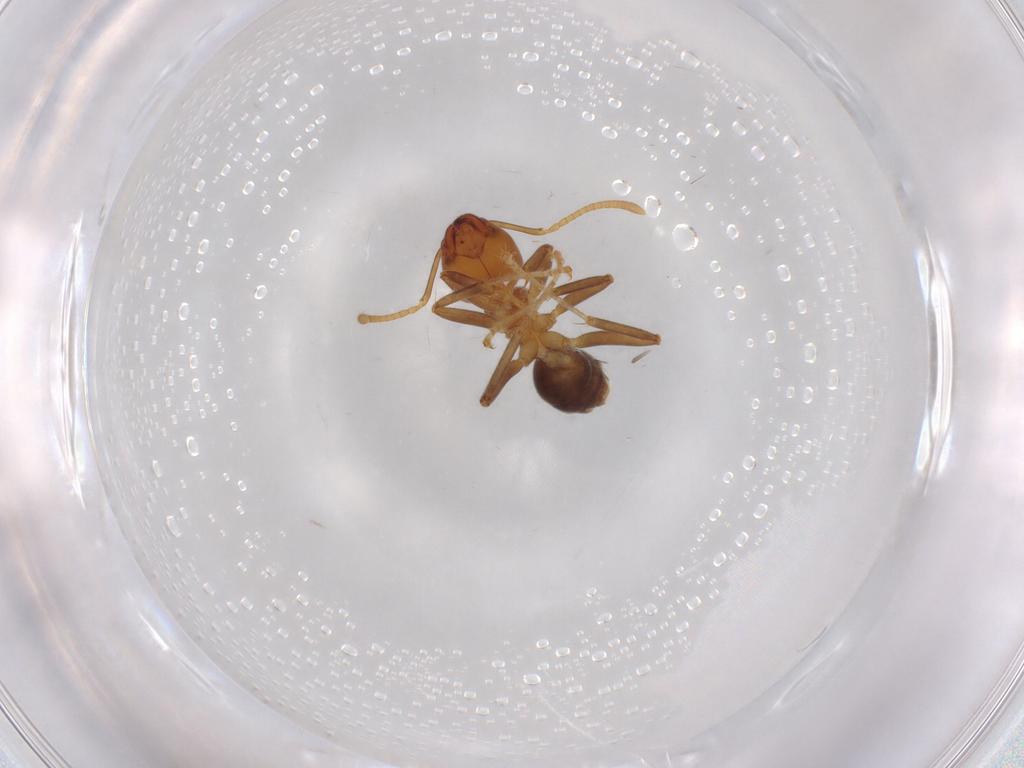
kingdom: Animalia
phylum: Arthropoda
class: Insecta
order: Hymenoptera
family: Formicidae
